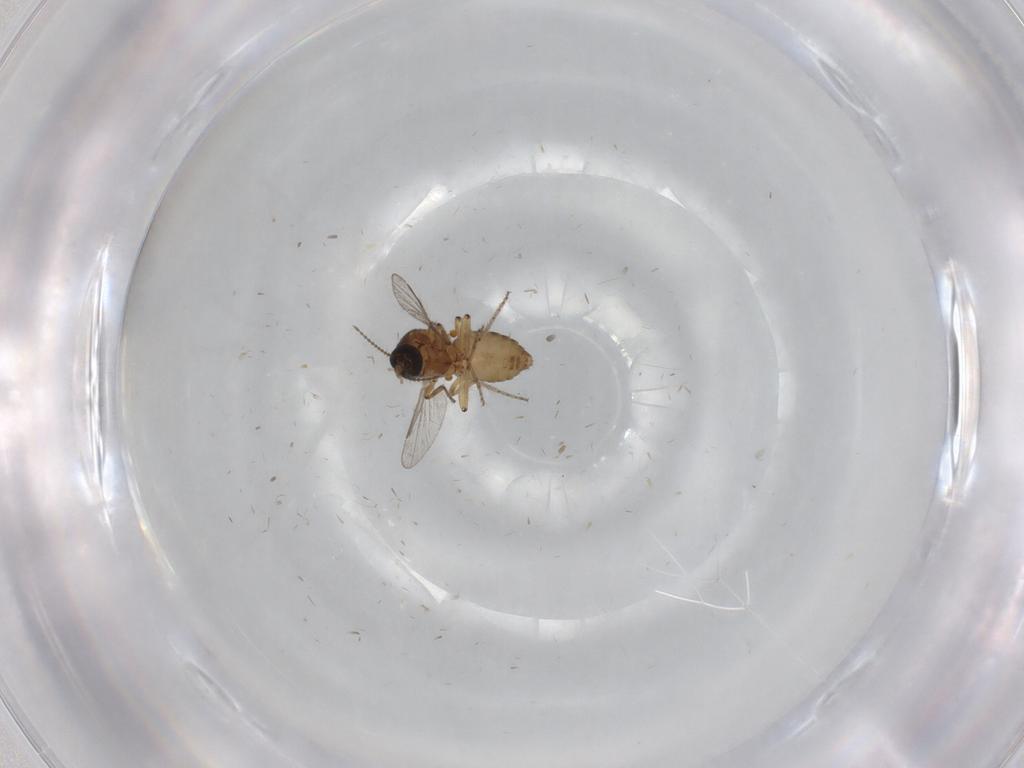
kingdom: Animalia
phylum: Arthropoda
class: Insecta
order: Diptera
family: Ceratopogonidae
